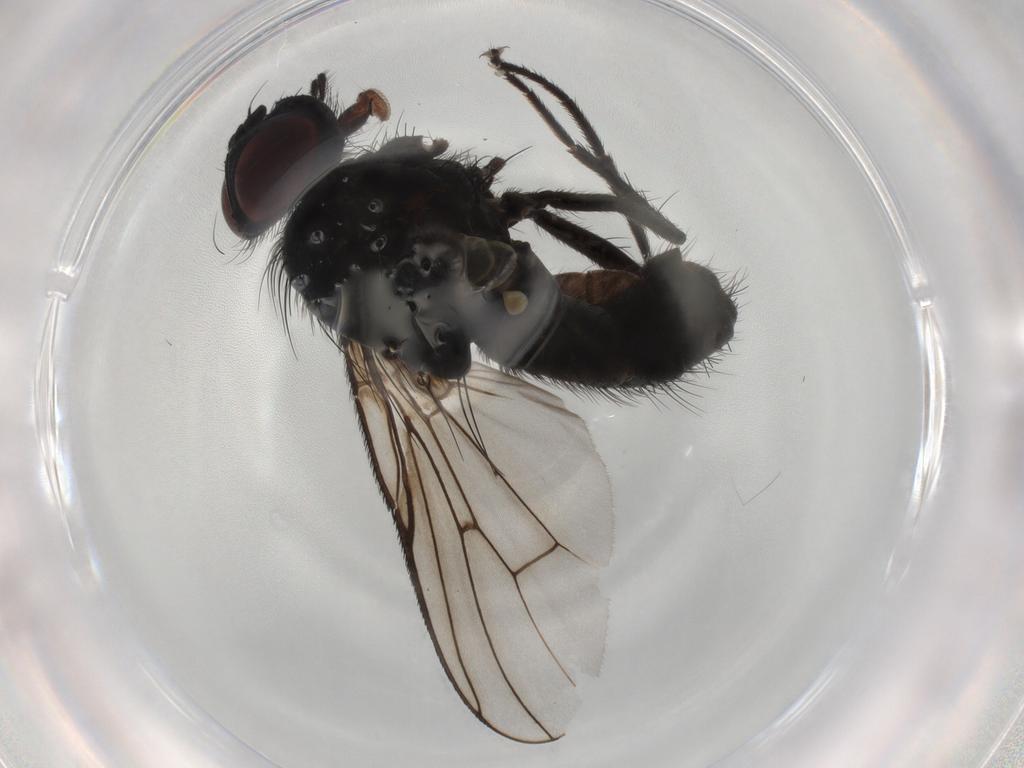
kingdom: Animalia
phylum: Arthropoda
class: Insecta
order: Diptera
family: Muscidae
